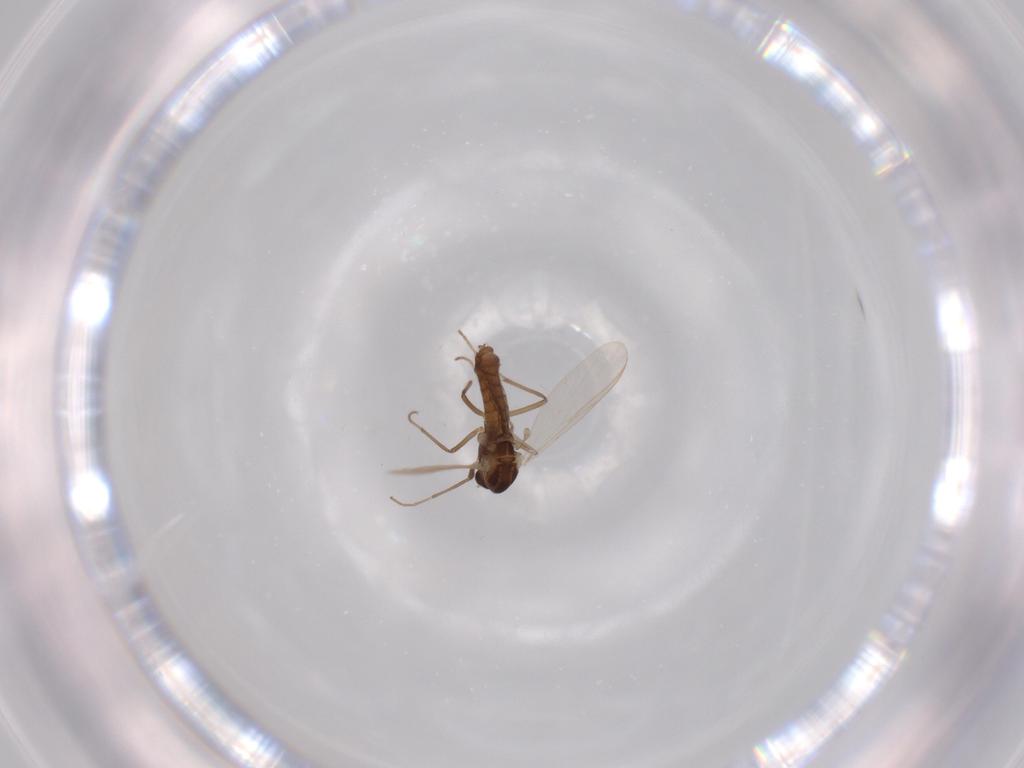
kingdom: Animalia
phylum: Arthropoda
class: Insecta
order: Diptera
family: Chironomidae
